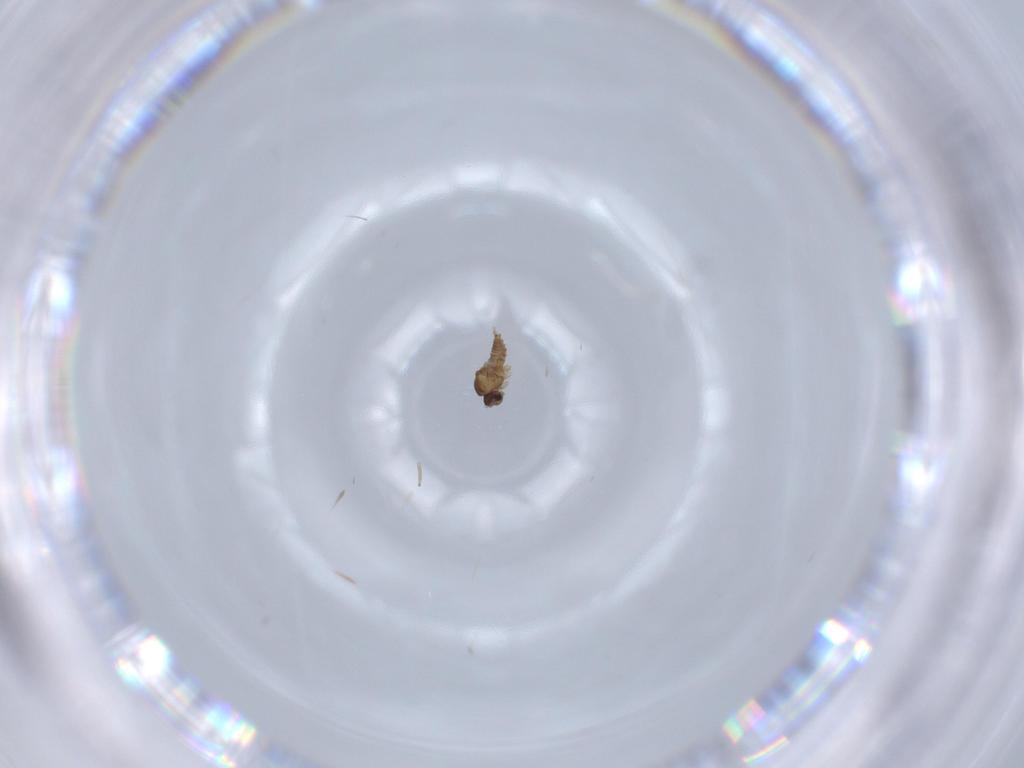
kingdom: Animalia
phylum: Arthropoda
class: Insecta
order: Diptera
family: Cecidomyiidae
